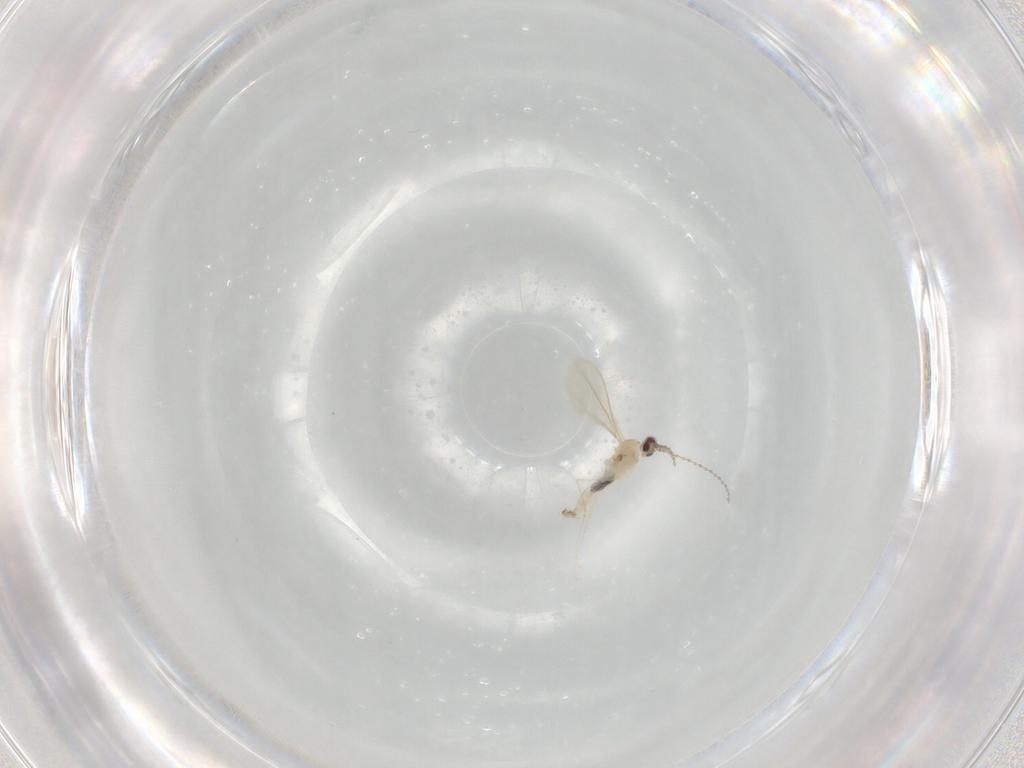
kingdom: Animalia
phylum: Arthropoda
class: Insecta
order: Diptera
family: Cecidomyiidae
